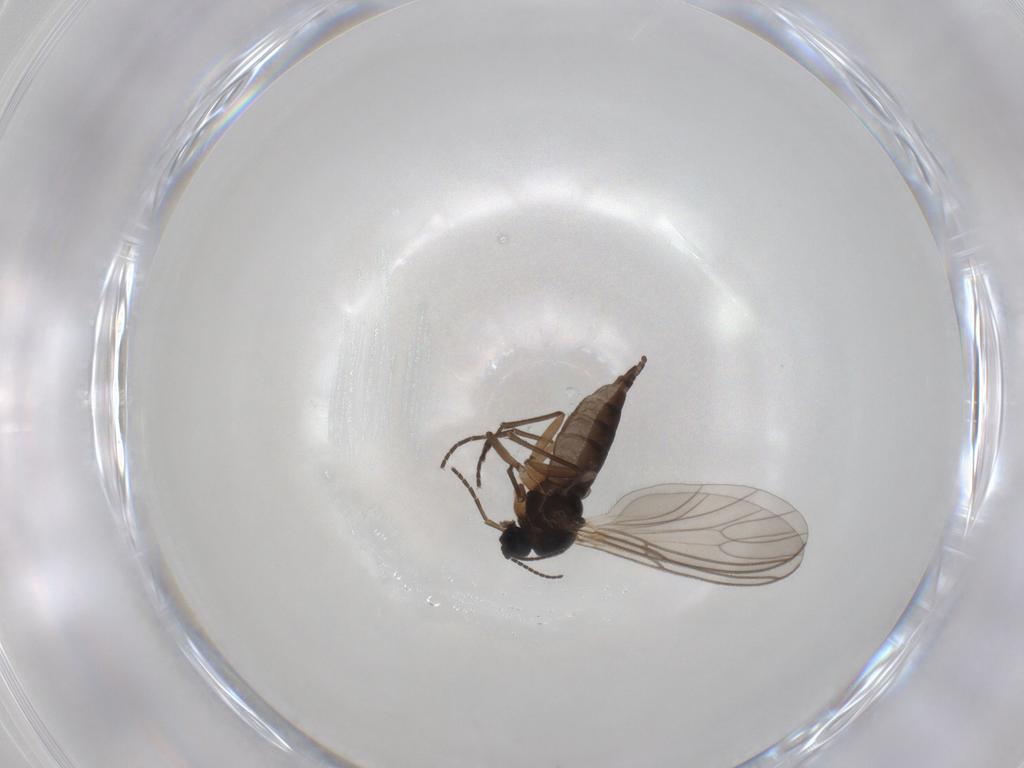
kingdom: Animalia
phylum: Arthropoda
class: Insecta
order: Diptera
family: Sciaridae
